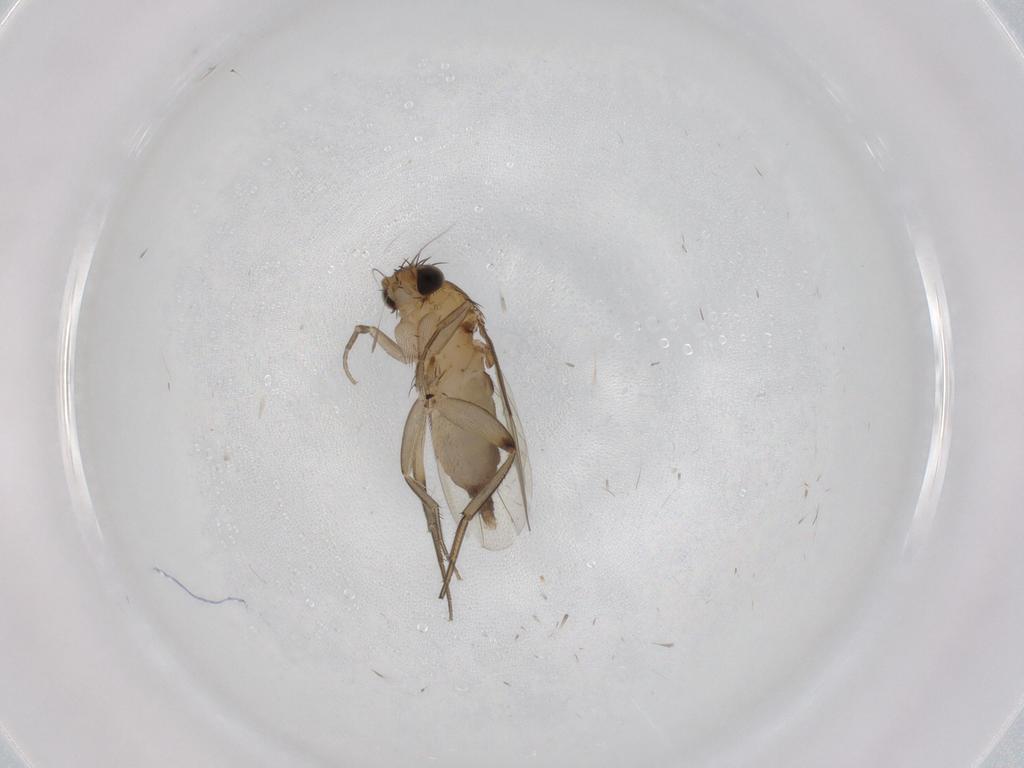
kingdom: Animalia
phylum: Arthropoda
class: Insecta
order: Diptera
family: Phoridae
